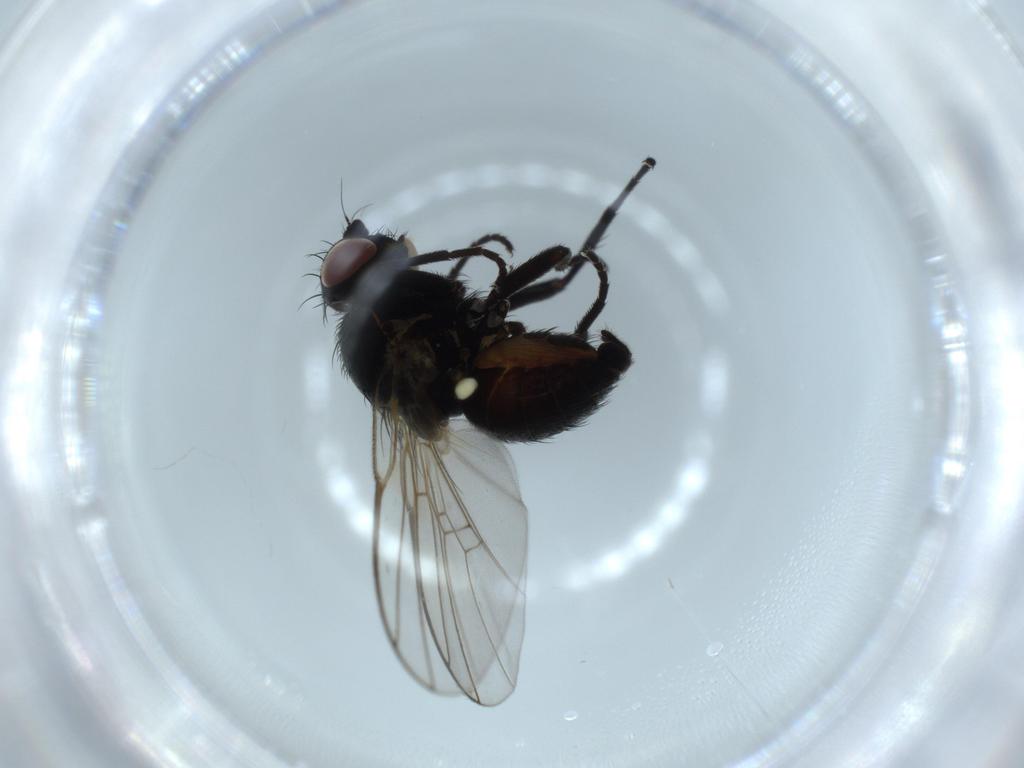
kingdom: Animalia
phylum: Arthropoda
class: Insecta
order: Diptera
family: Agromyzidae
